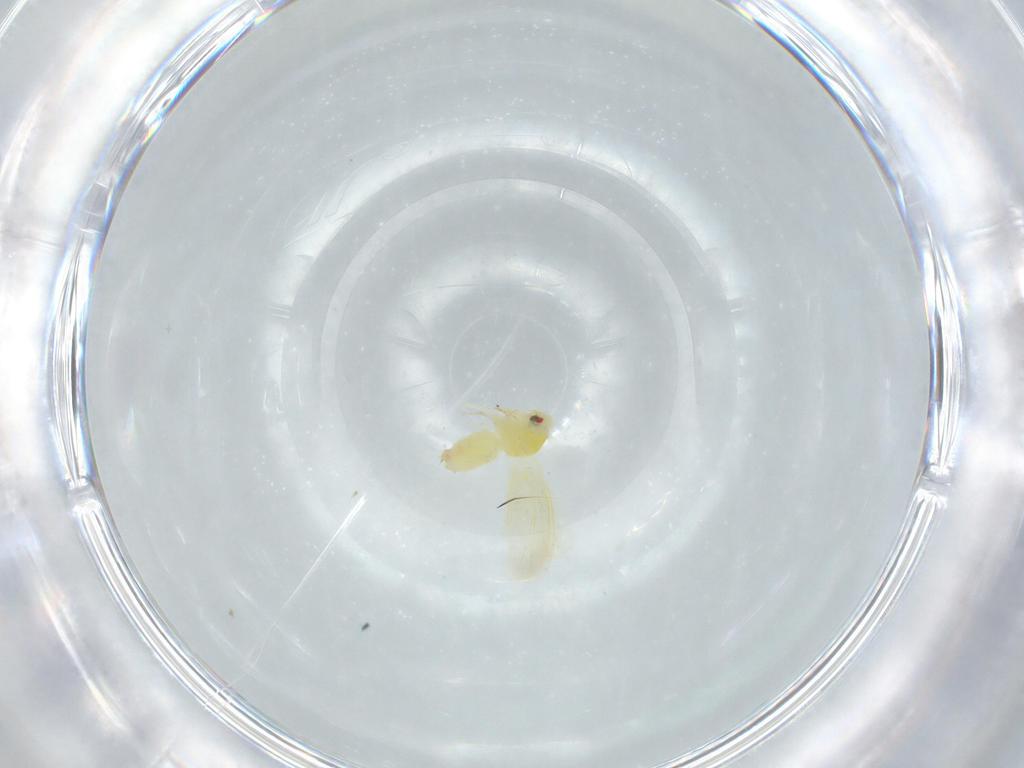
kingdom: Animalia
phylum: Arthropoda
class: Insecta
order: Hemiptera
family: Aleyrodidae
